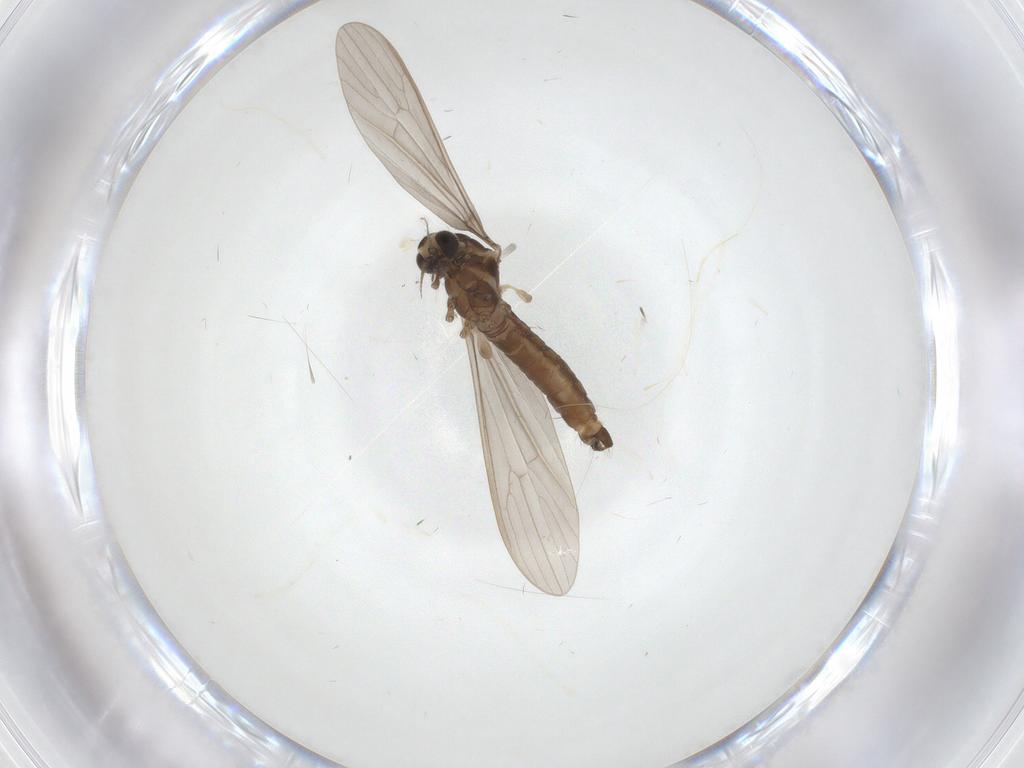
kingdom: Animalia
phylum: Arthropoda
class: Insecta
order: Diptera
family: Limoniidae
